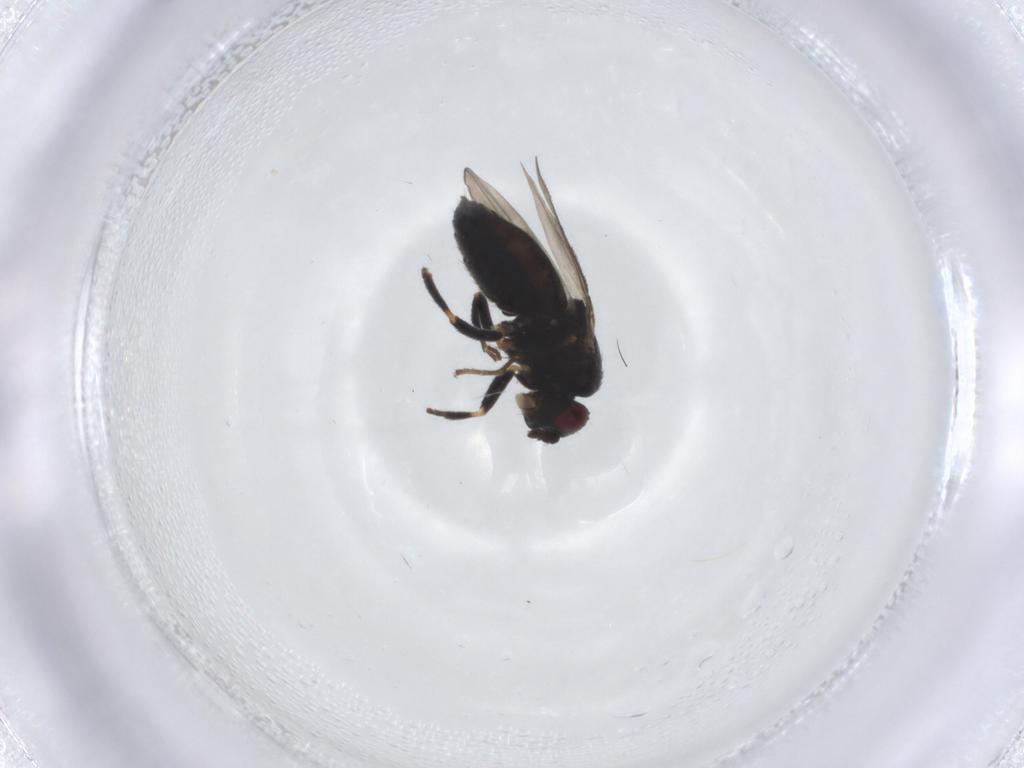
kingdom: Animalia
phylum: Arthropoda
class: Insecta
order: Diptera
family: Sphaeroceridae
